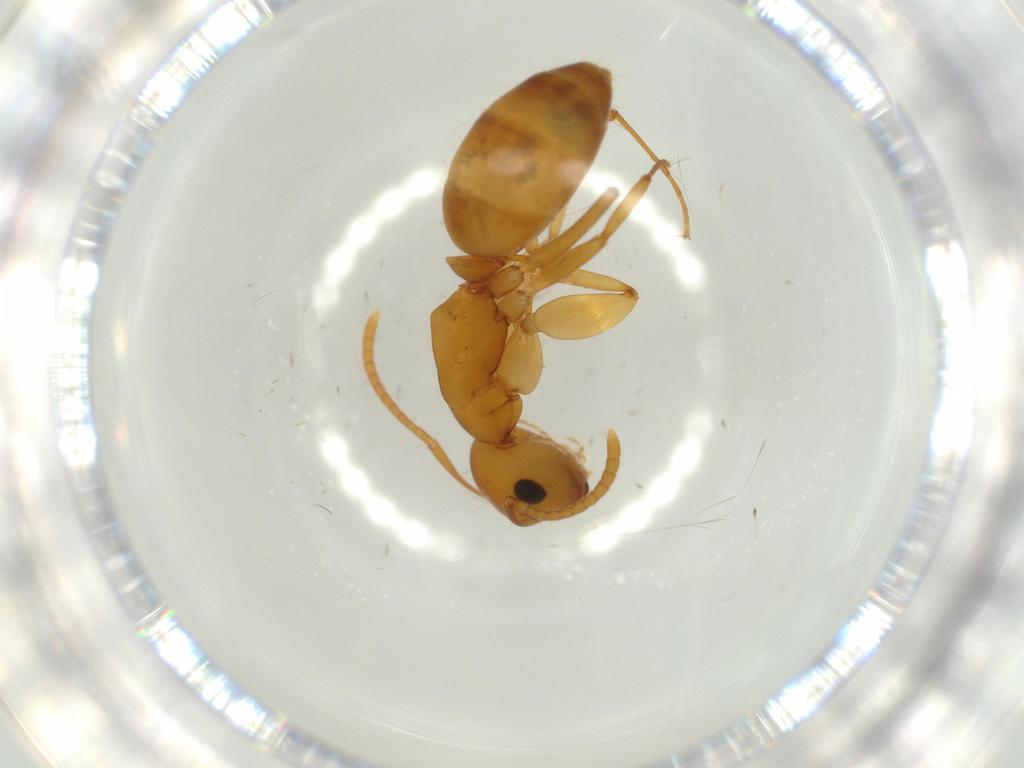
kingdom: Animalia
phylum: Arthropoda
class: Insecta
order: Hymenoptera
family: Formicidae
